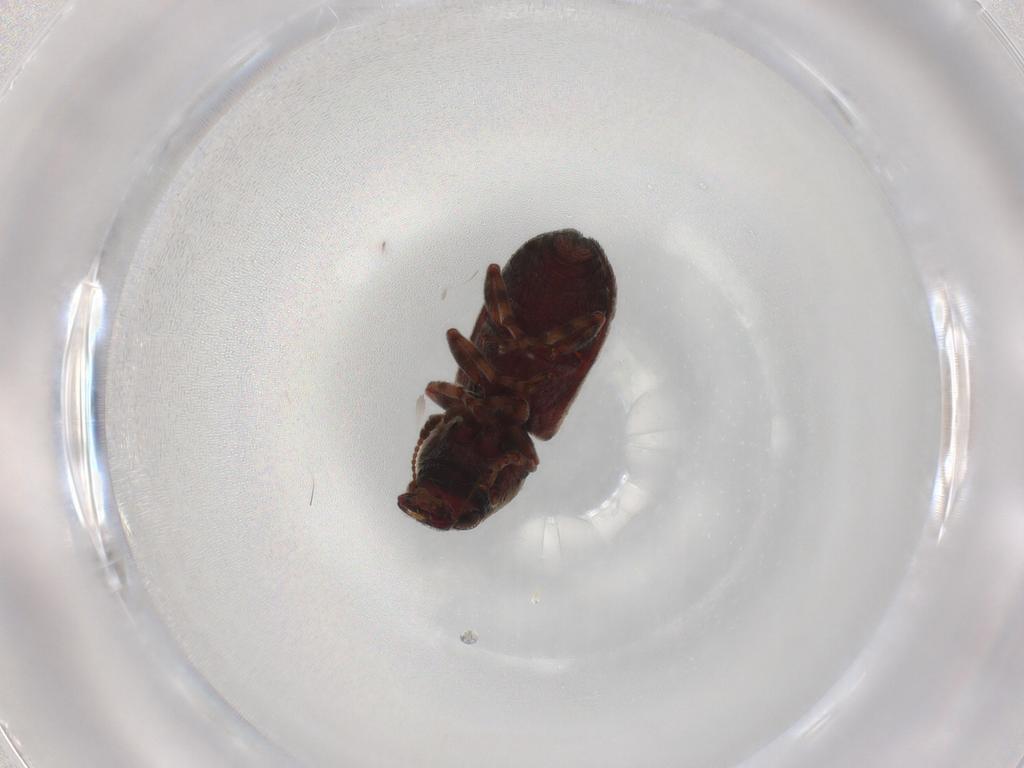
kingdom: Animalia
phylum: Arthropoda
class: Insecta
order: Coleoptera
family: Anthribidae
